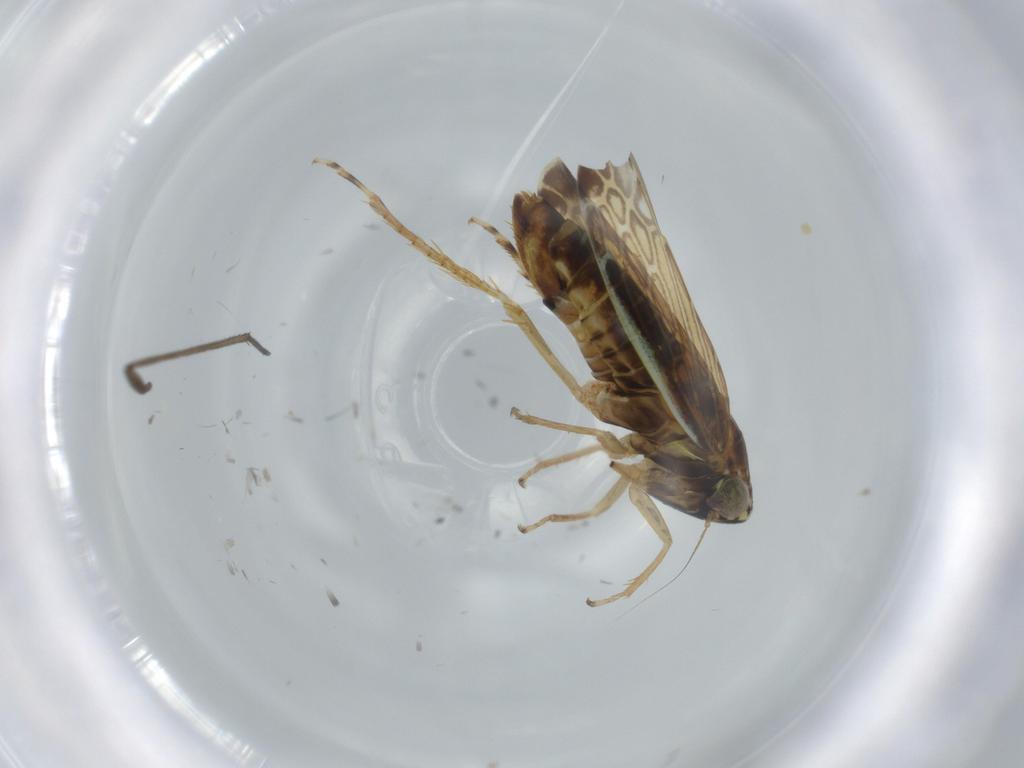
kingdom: Animalia
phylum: Arthropoda
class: Insecta
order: Hemiptera
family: Cicadellidae
